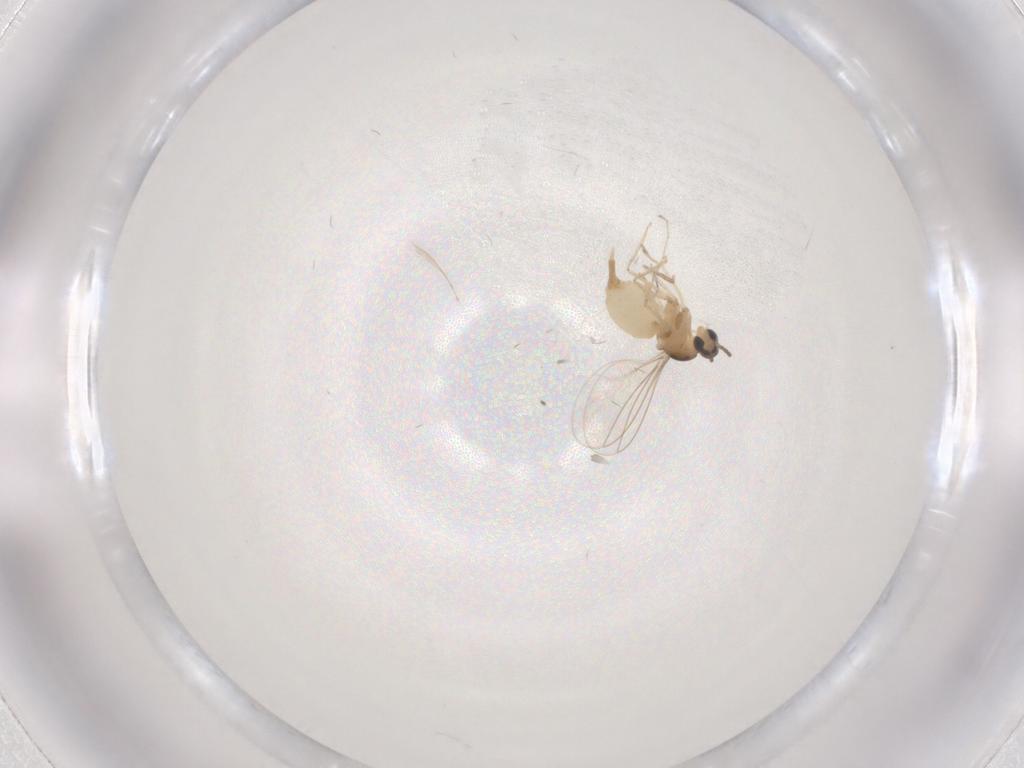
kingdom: Animalia
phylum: Arthropoda
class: Insecta
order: Diptera
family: Cecidomyiidae
